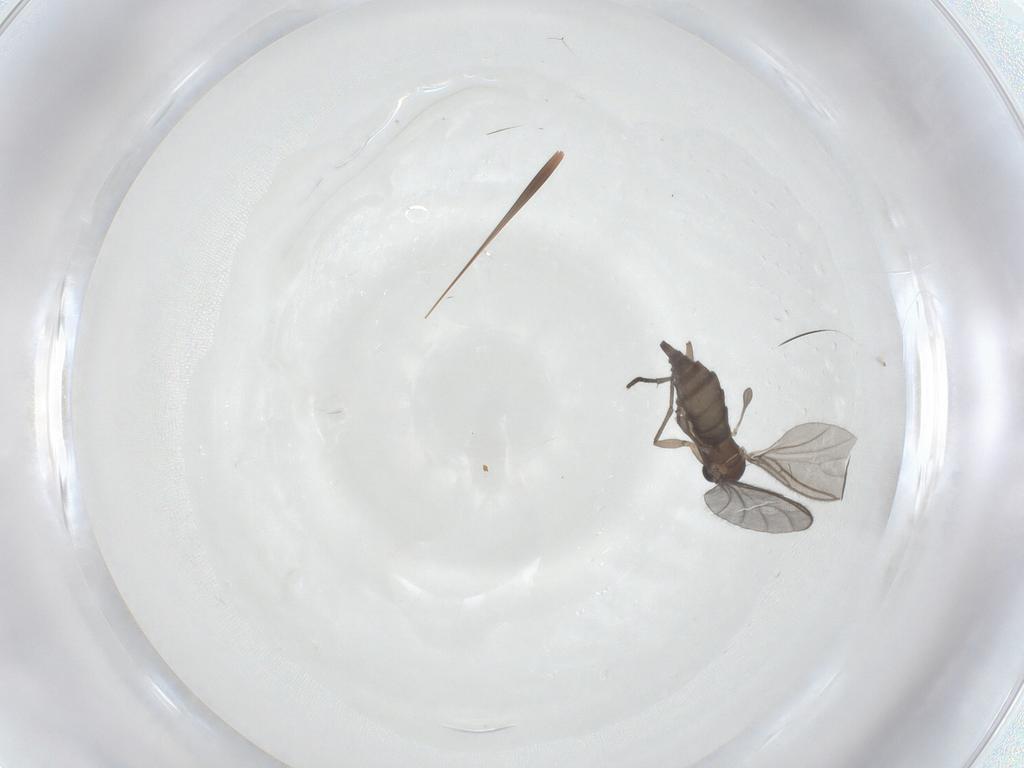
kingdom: Animalia
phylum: Arthropoda
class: Insecta
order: Diptera
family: Sciaridae
